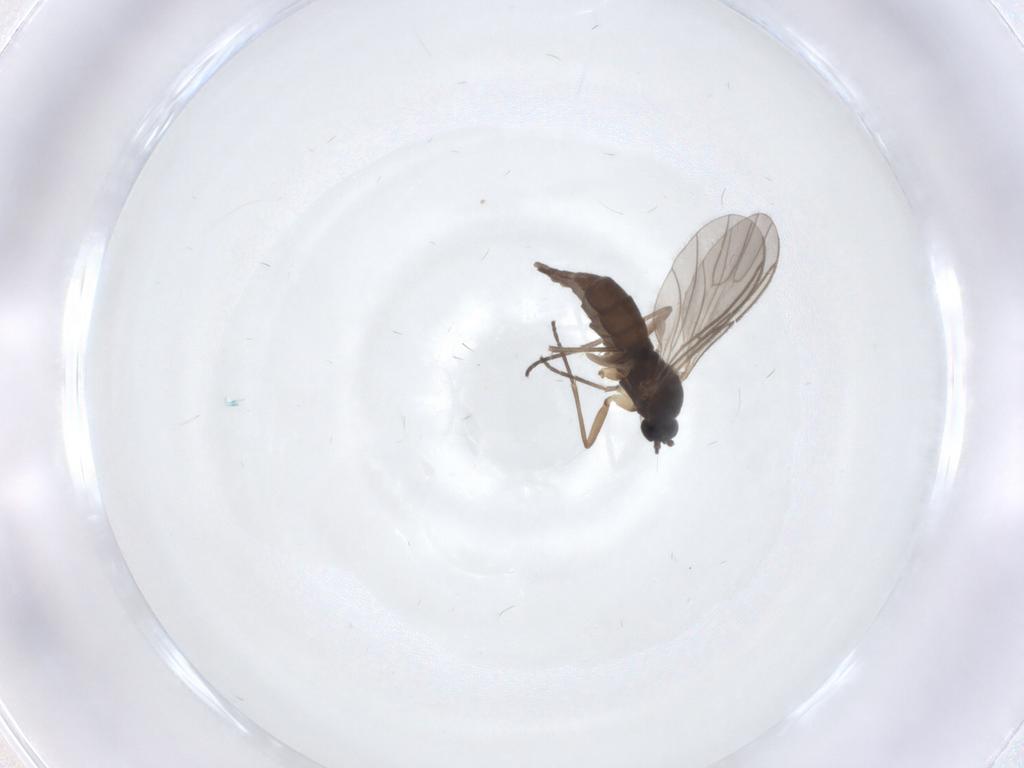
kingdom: Animalia
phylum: Arthropoda
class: Insecta
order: Diptera
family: Sciaridae
